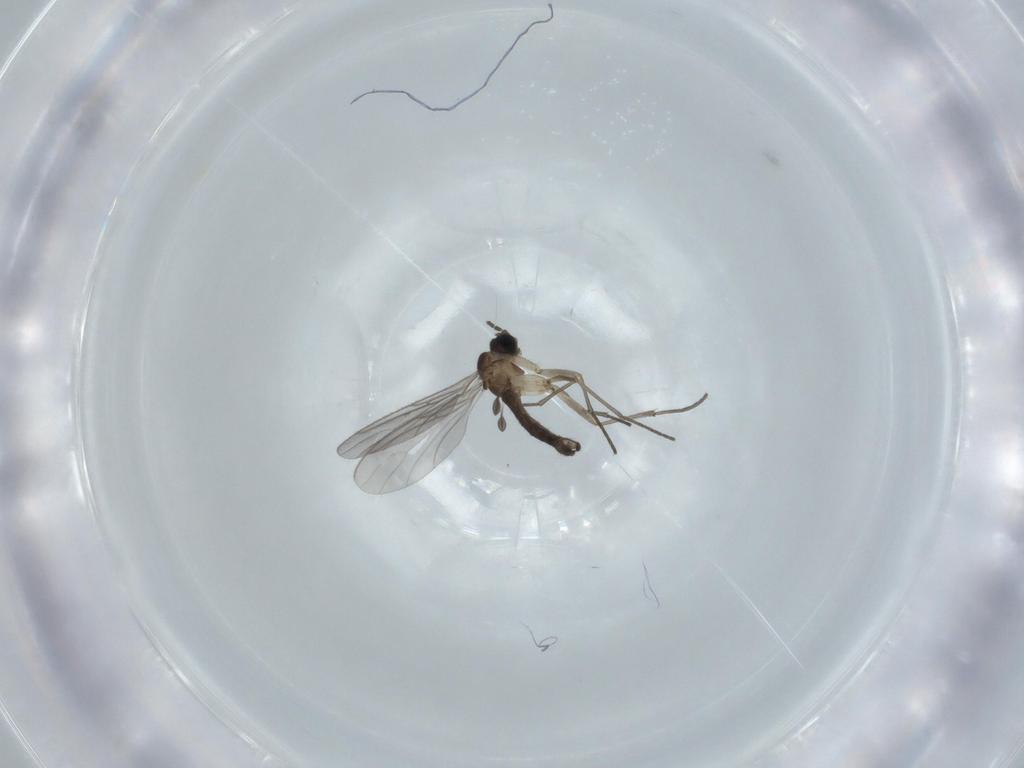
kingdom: Animalia
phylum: Arthropoda
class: Insecta
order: Diptera
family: Sciaridae
